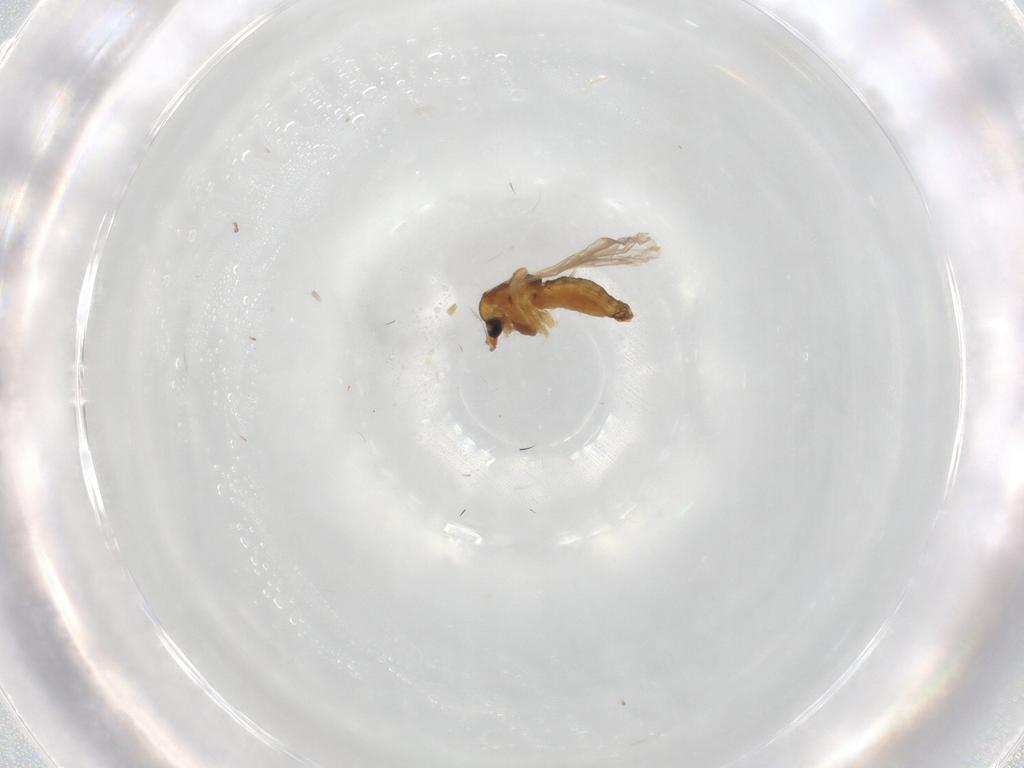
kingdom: Animalia
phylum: Arthropoda
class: Insecta
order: Diptera
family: Chironomidae
